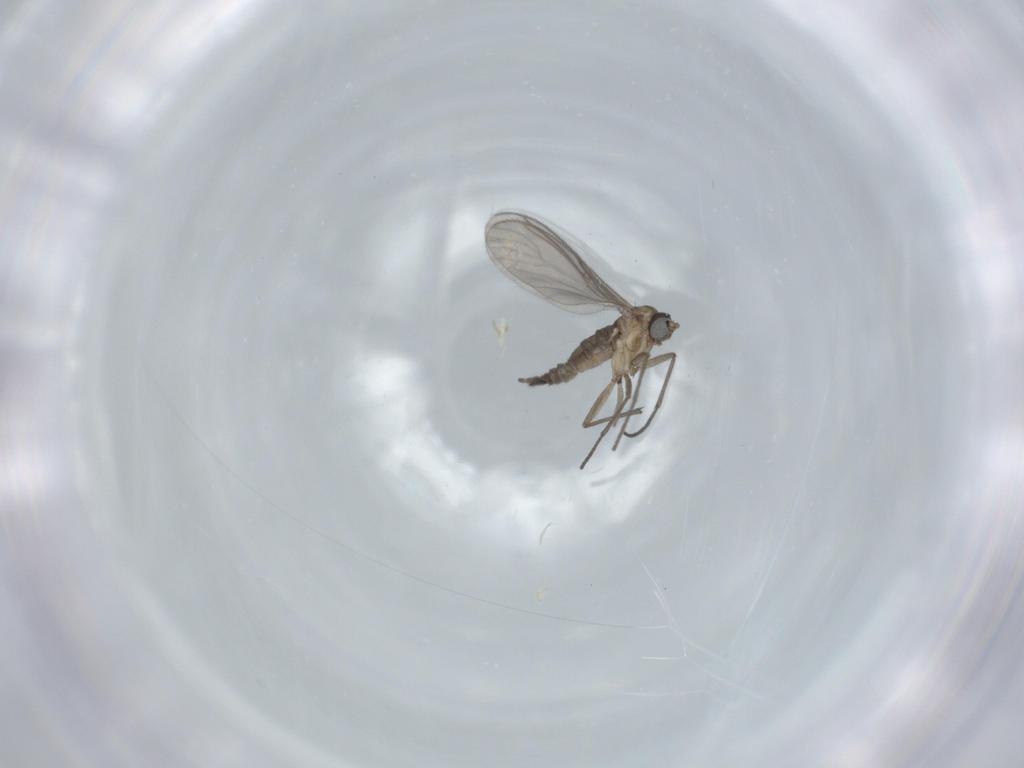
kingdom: Animalia
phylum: Arthropoda
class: Insecta
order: Diptera
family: Sciaridae
